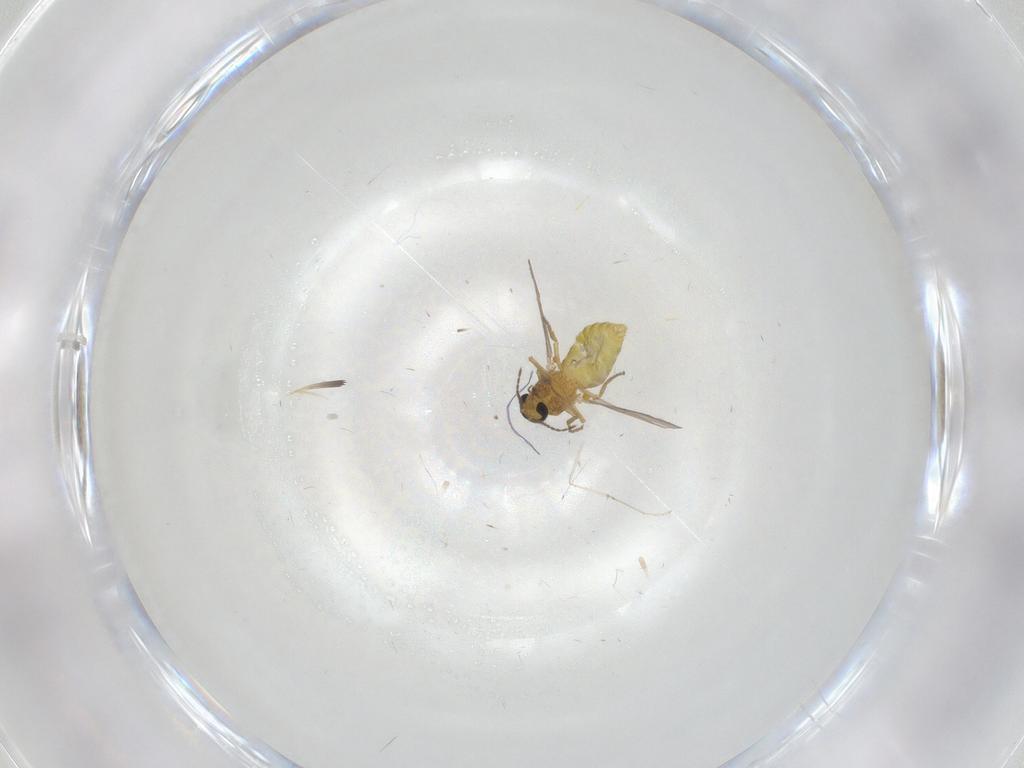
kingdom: Animalia
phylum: Arthropoda
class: Insecta
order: Diptera
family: Ceratopogonidae
